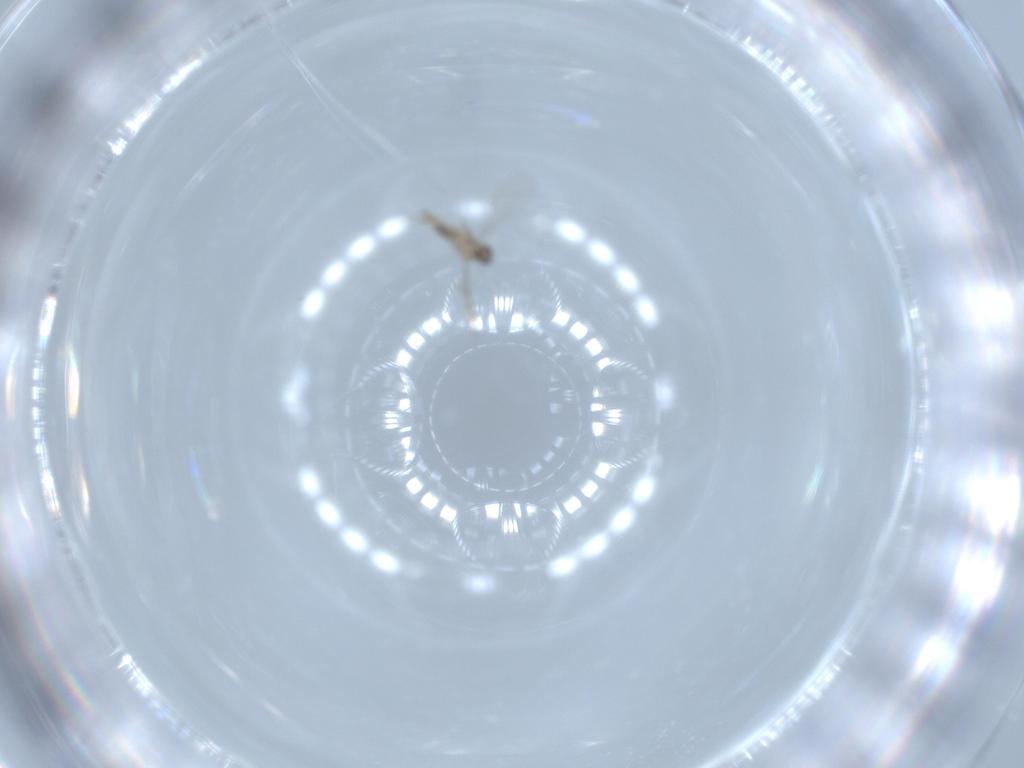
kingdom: Animalia
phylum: Arthropoda
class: Insecta
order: Diptera
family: Cecidomyiidae
